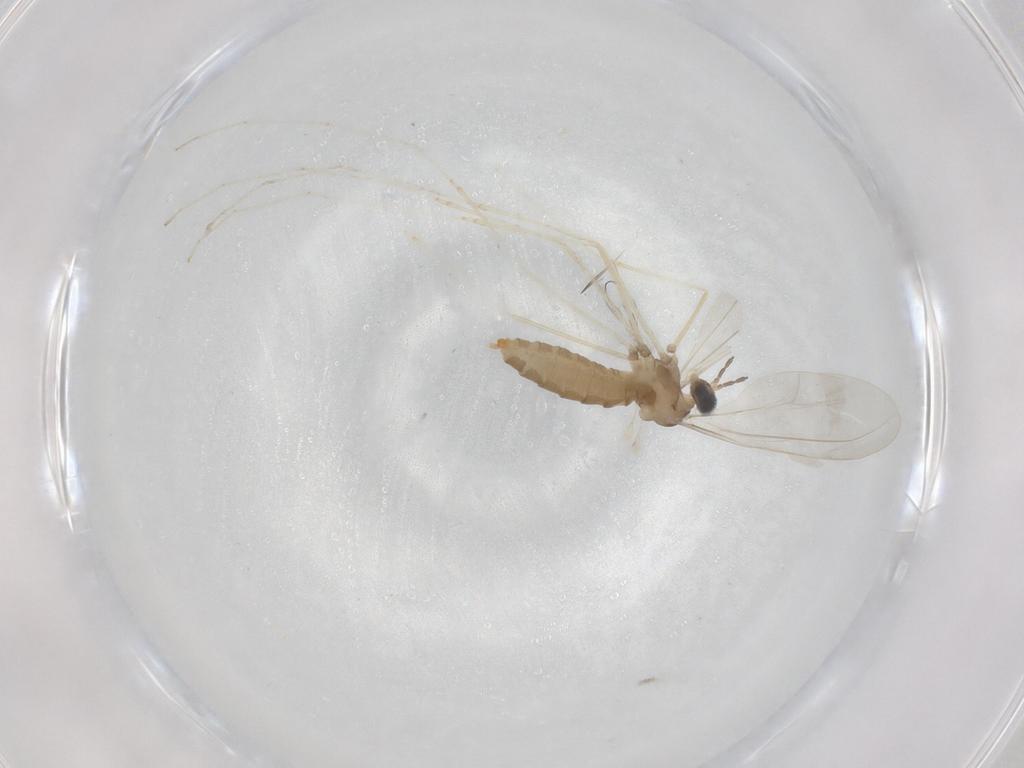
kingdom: Animalia
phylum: Arthropoda
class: Insecta
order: Diptera
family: Cecidomyiidae
